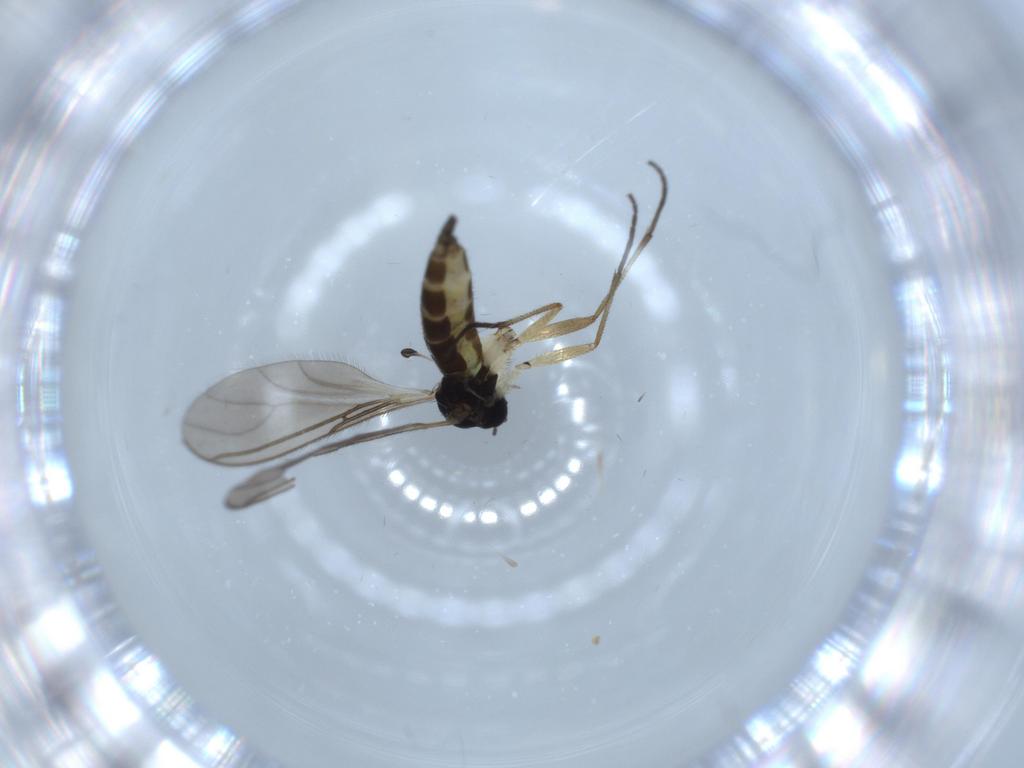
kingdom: Animalia
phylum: Arthropoda
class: Insecta
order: Diptera
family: Sciaridae
